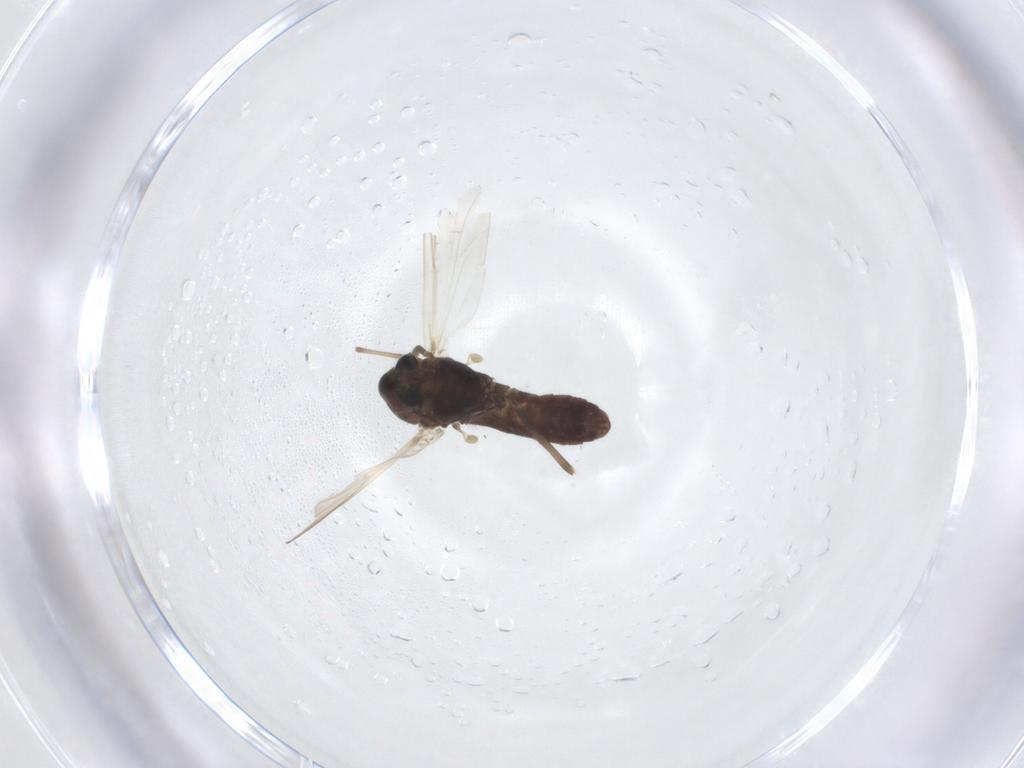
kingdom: Animalia
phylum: Arthropoda
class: Insecta
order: Diptera
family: Chironomidae
